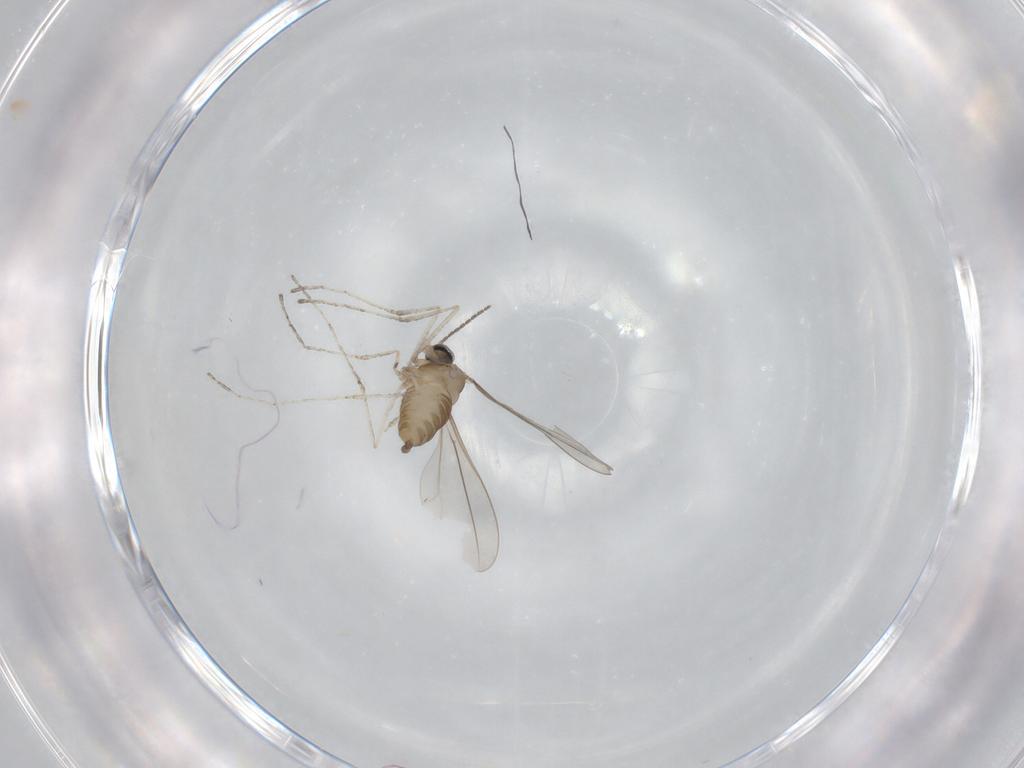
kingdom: Animalia
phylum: Arthropoda
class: Insecta
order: Diptera
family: Cecidomyiidae
